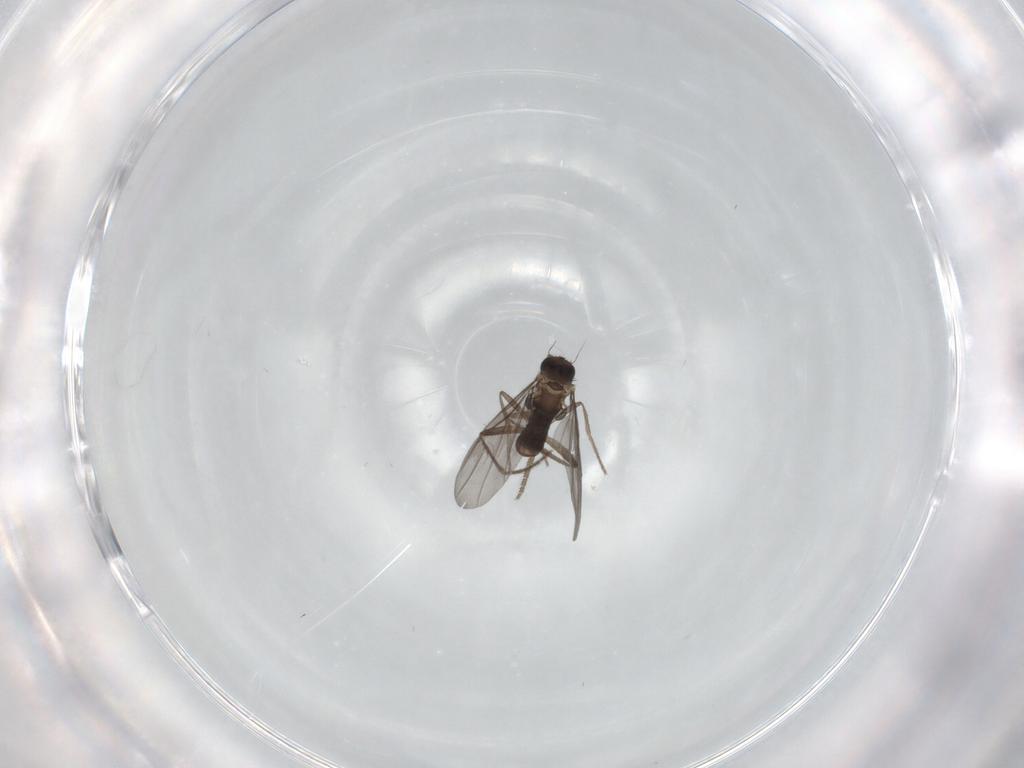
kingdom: Animalia
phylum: Arthropoda
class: Insecta
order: Diptera
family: Phoridae
